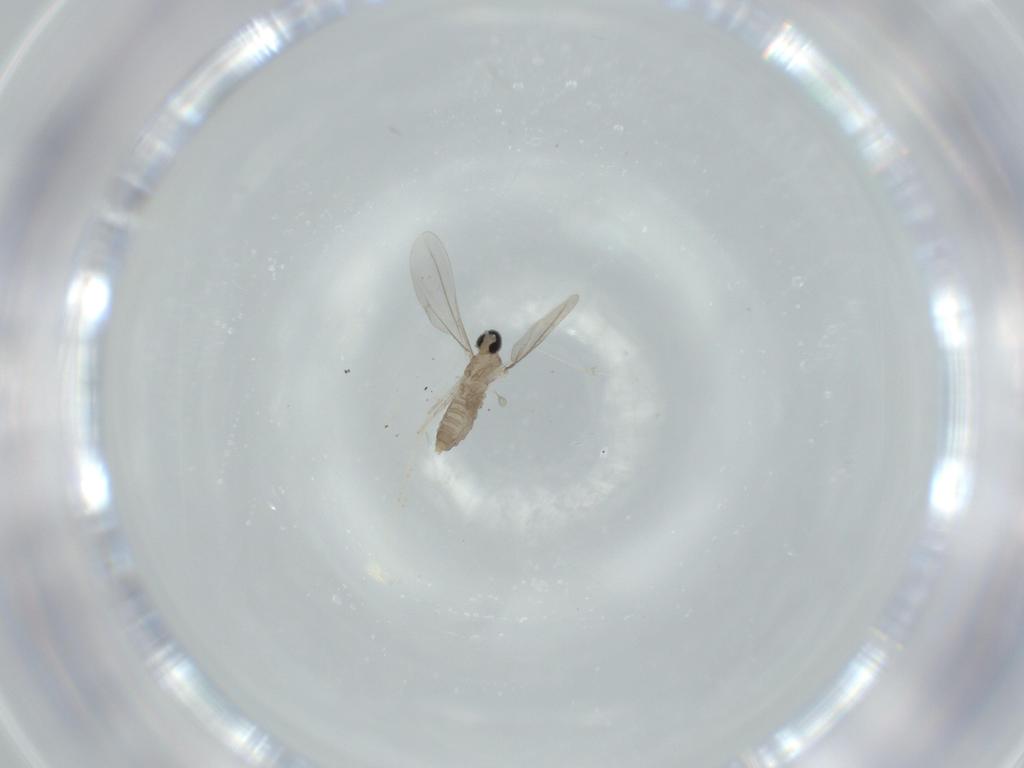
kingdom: Animalia
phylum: Arthropoda
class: Insecta
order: Diptera
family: Cecidomyiidae
